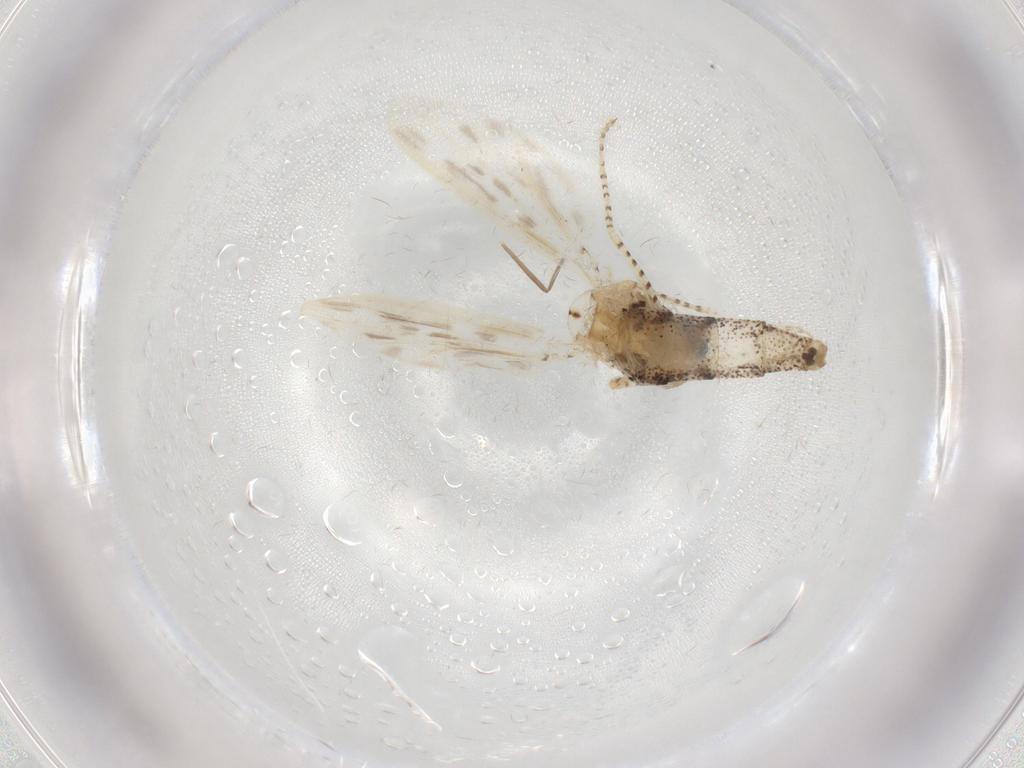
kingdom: Animalia
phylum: Arthropoda
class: Insecta
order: Diptera
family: Chaoboridae
